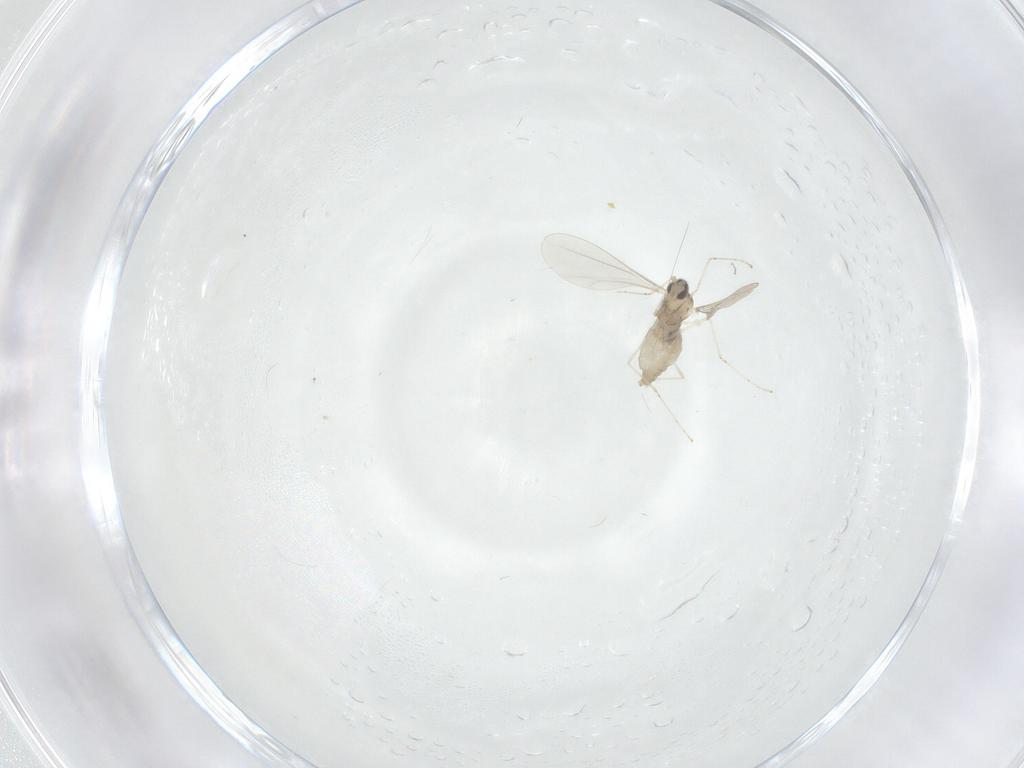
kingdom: Animalia
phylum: Arthropoda
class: Insecta
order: Diptera
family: Cecidomyiidae
